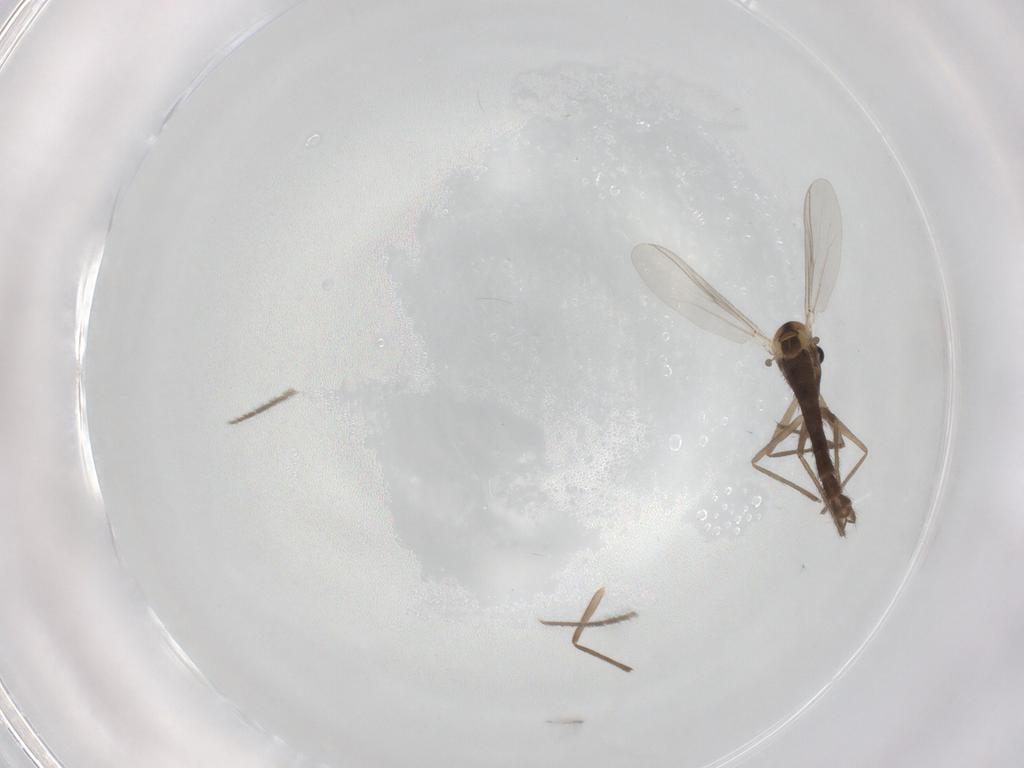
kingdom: Animalia
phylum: Arthropoda
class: Insecta
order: Diptera
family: Chironomidae
